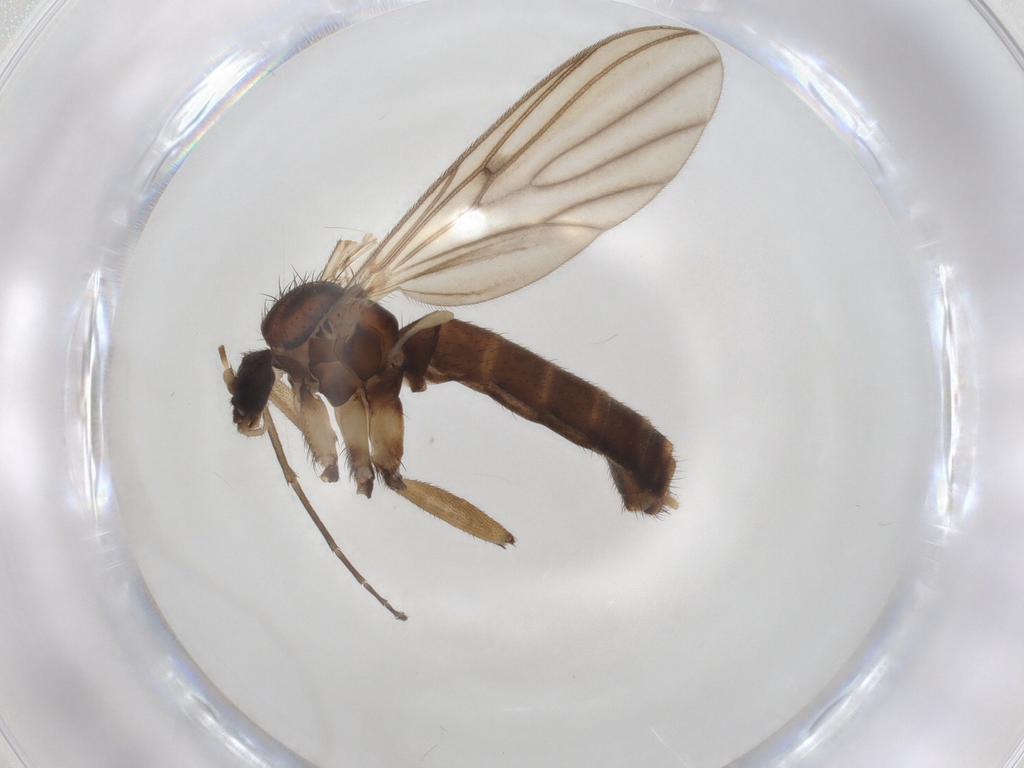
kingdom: Animalia
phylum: Arthropoda
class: Insecta
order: Diptera
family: Mycetophilidae
